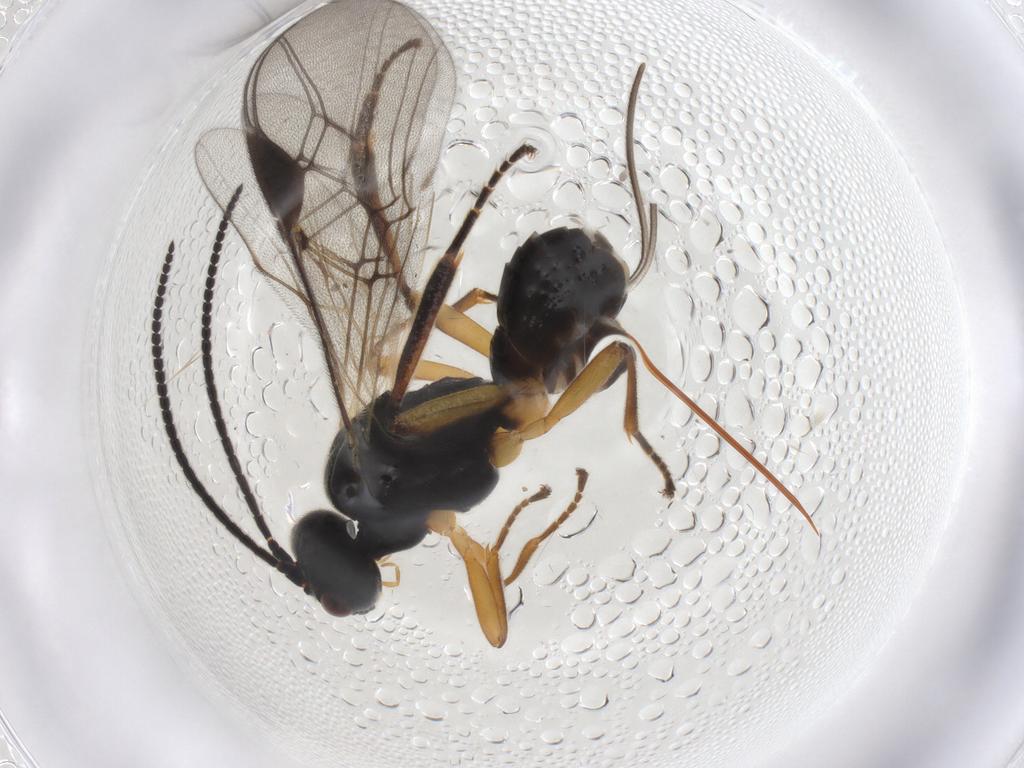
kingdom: Animalia
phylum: Arthropoda
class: Insecta
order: Hymenoptera
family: Braconidae
